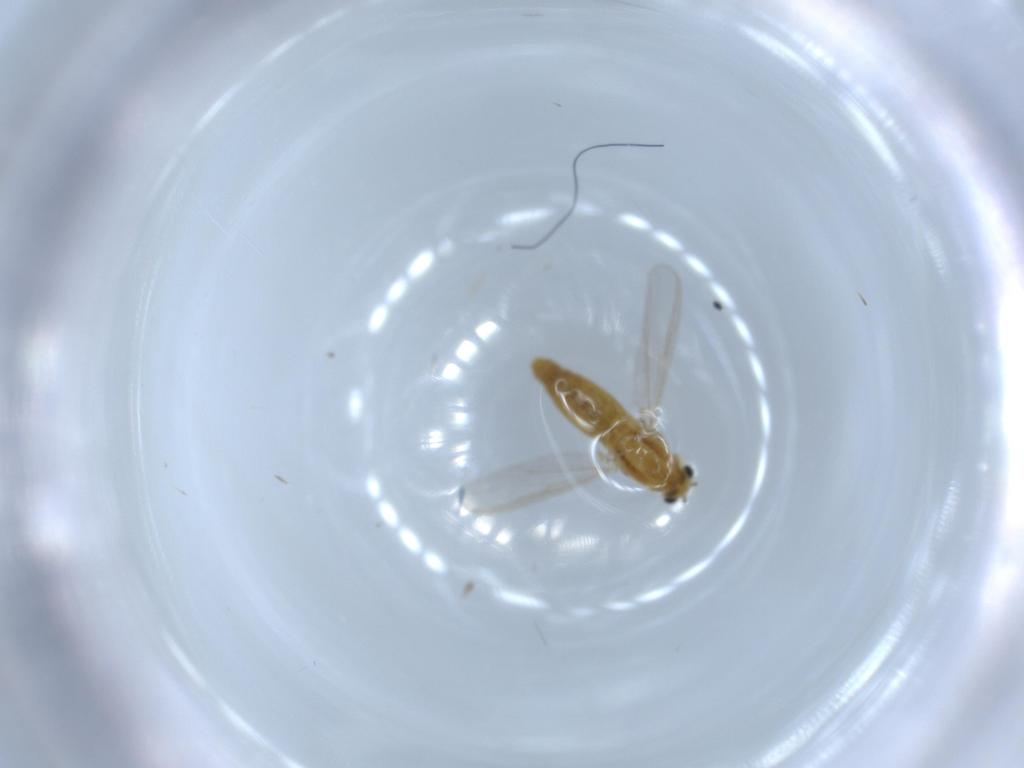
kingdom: Animalia
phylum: Arthropoda
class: Insecta
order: Diptera
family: Chironomidae
